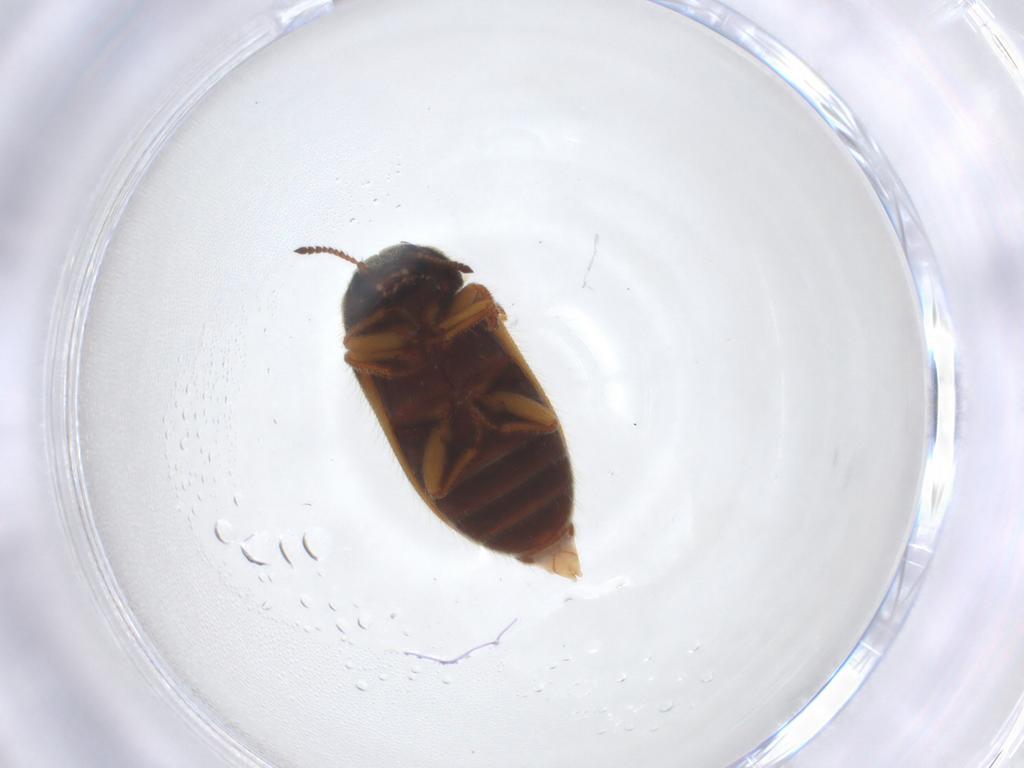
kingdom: Animalia
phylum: Arthropoda
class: Insecta
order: Coleoptera
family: Melyridae
